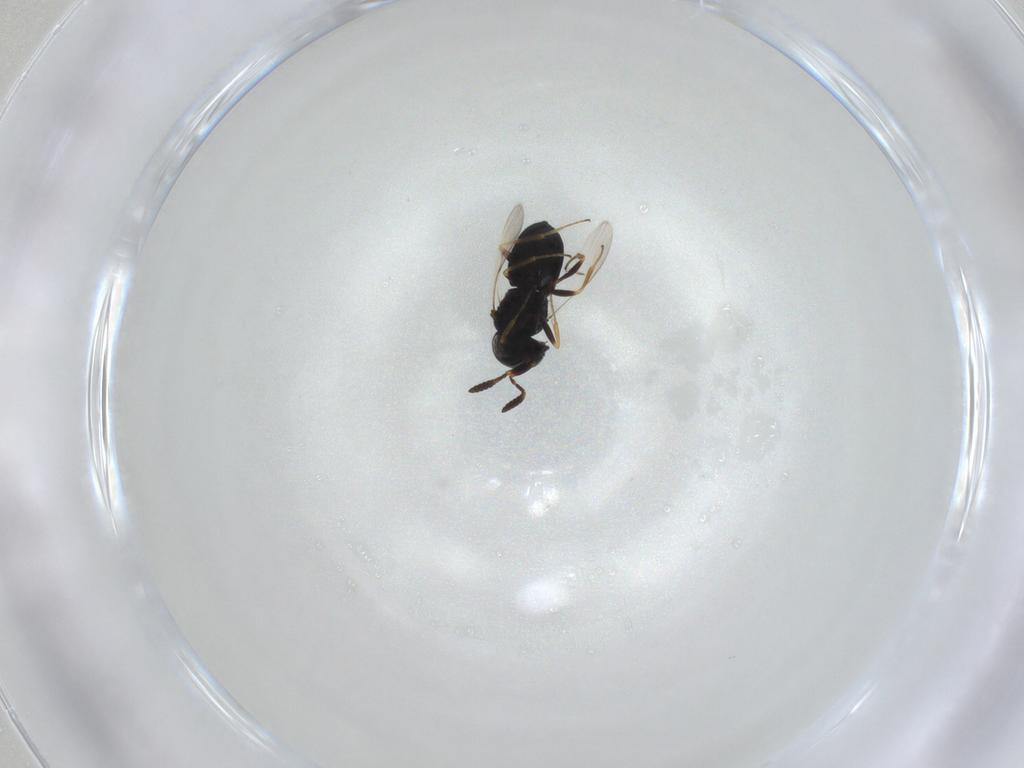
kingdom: Animalia
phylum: Arthropoda
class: Insecta
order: Hymenoptera
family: Scelionidae
